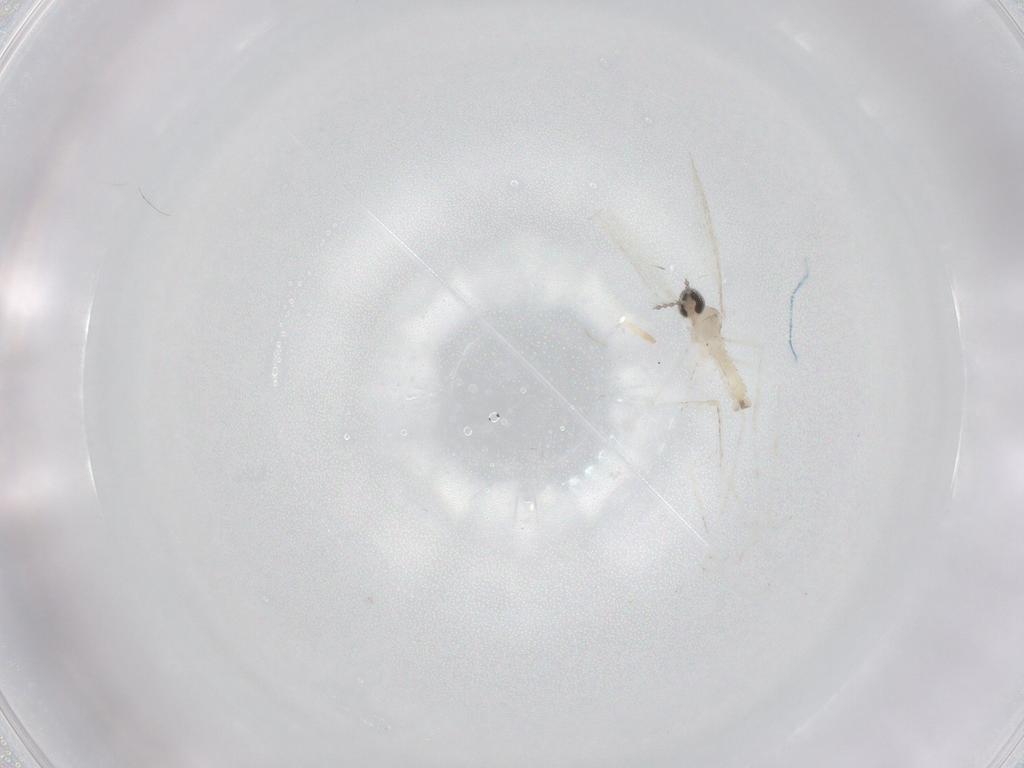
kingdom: Animalia
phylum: Arthropoda
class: Insecta
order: Diptera
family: Cecidomyiidae
